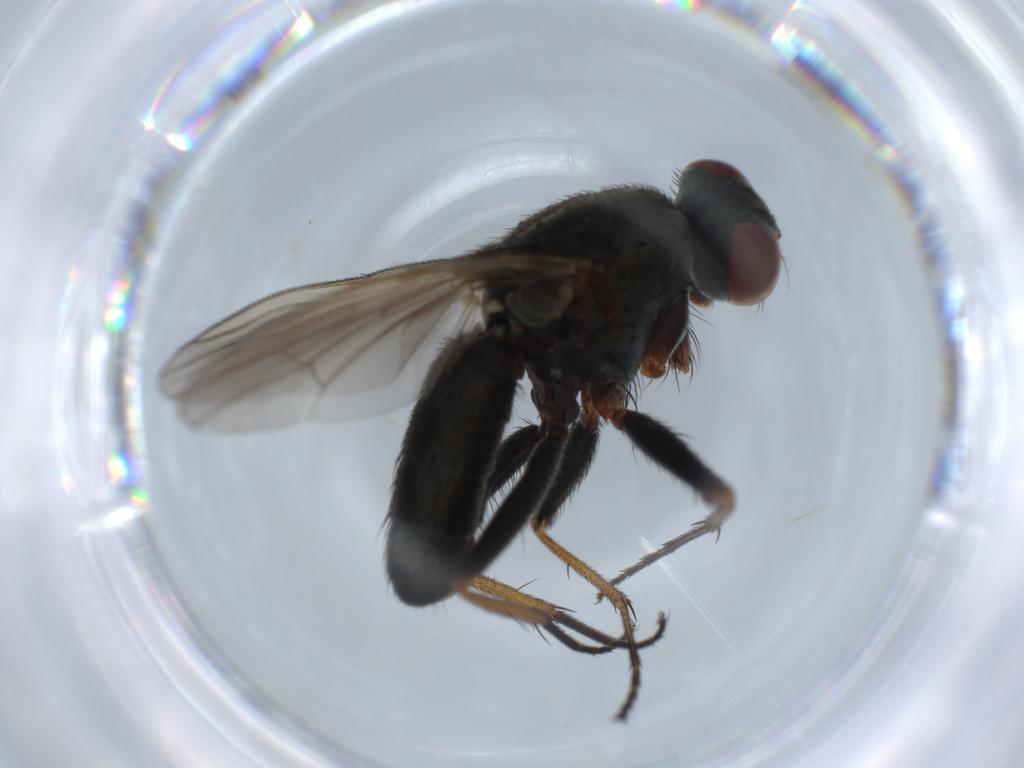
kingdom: Animalia
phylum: Arthropoda
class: Insecta
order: Diptera
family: Muscidae
